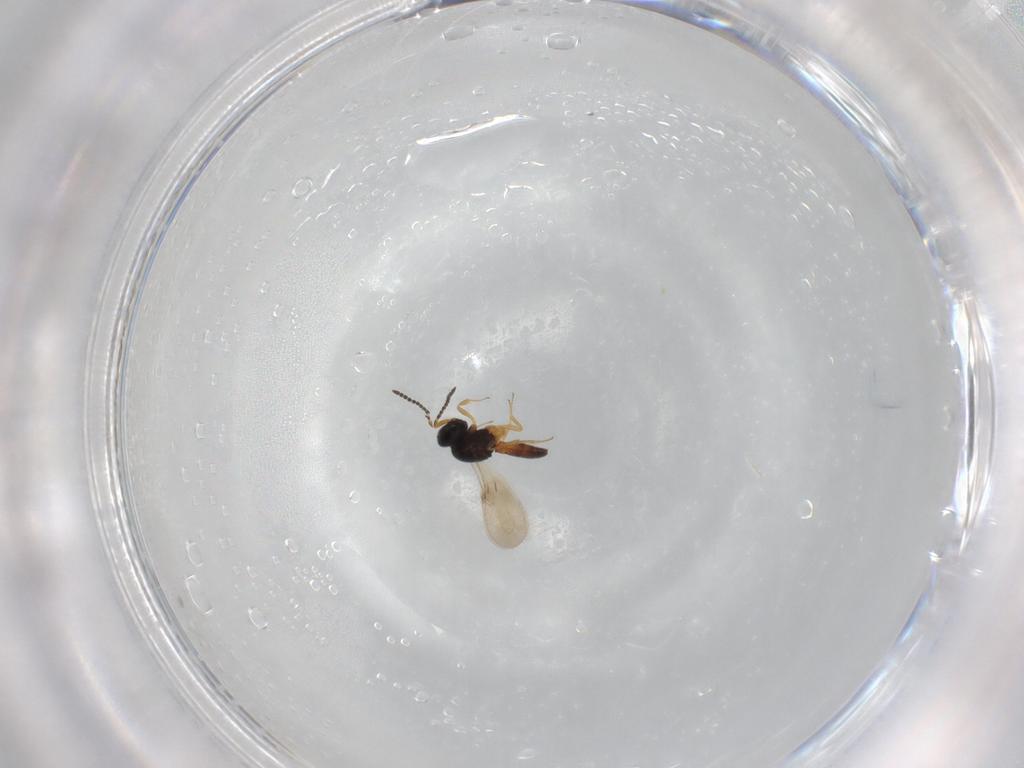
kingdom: Animalia
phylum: Arthropoda
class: Insecta
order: Hymenoptera
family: Scelionidae
